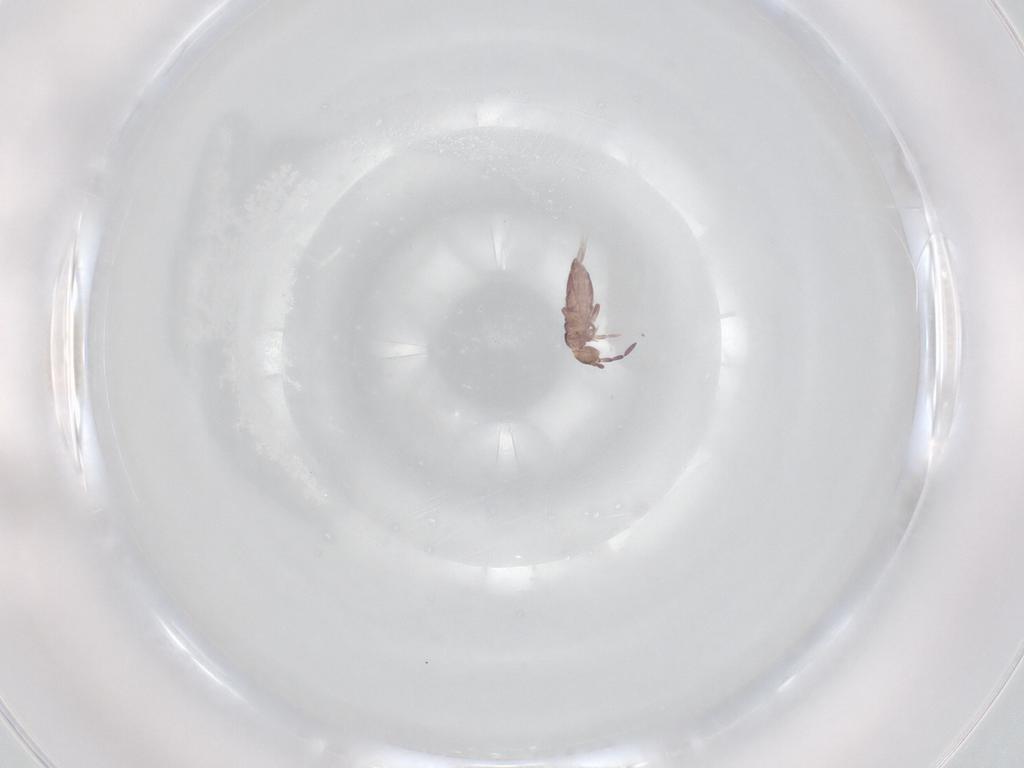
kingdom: Animalia
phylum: Arthropoda
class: Collembola
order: Entomobryomorpha
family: Entomobryidae
